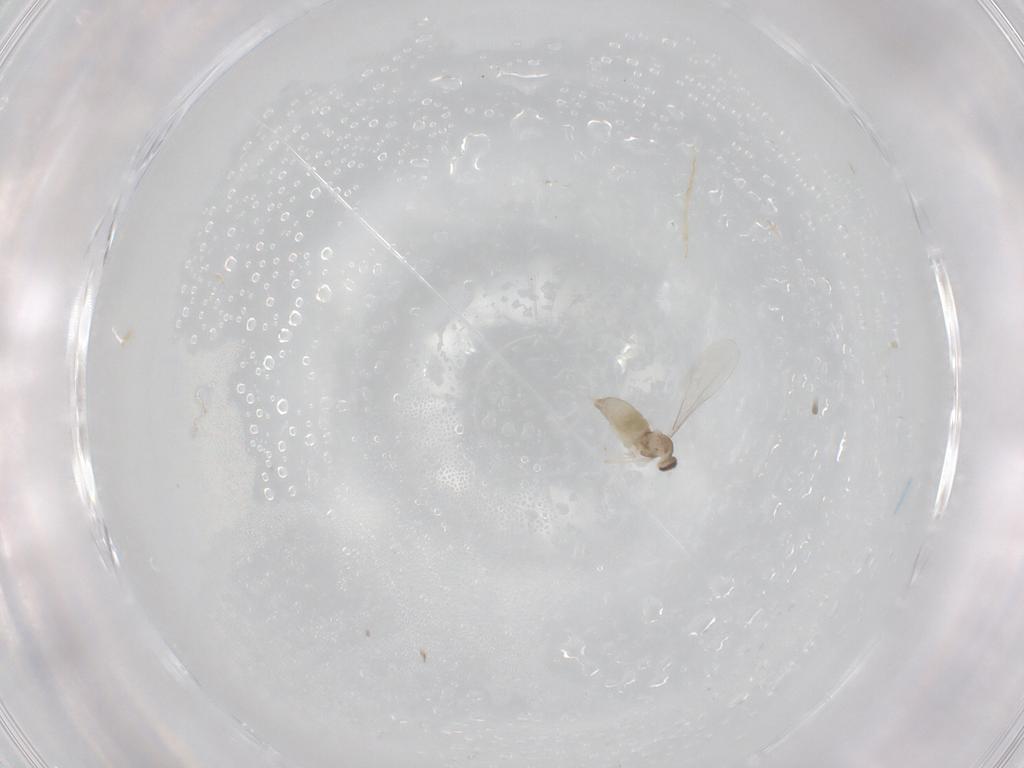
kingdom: Animalia
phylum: Arthropoda
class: Insecta
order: Diptera
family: Cecidomyiidae
